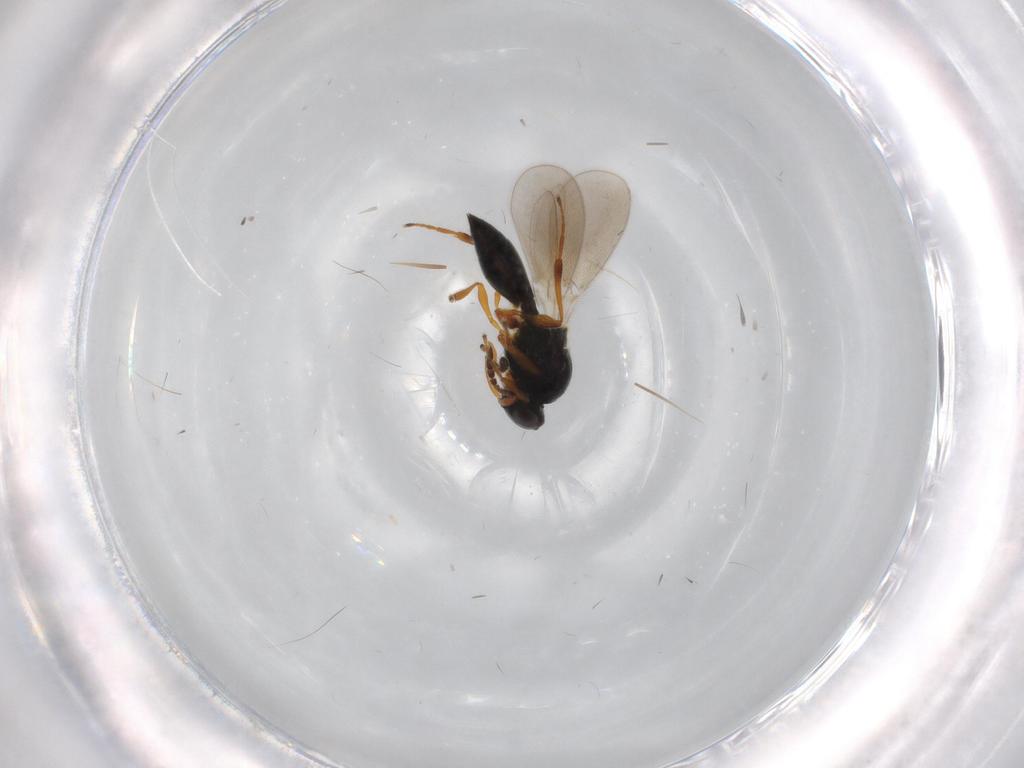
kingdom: Animalia
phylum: Arthropoda
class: Insecta
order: Hymenoptera
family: Platygastridae
